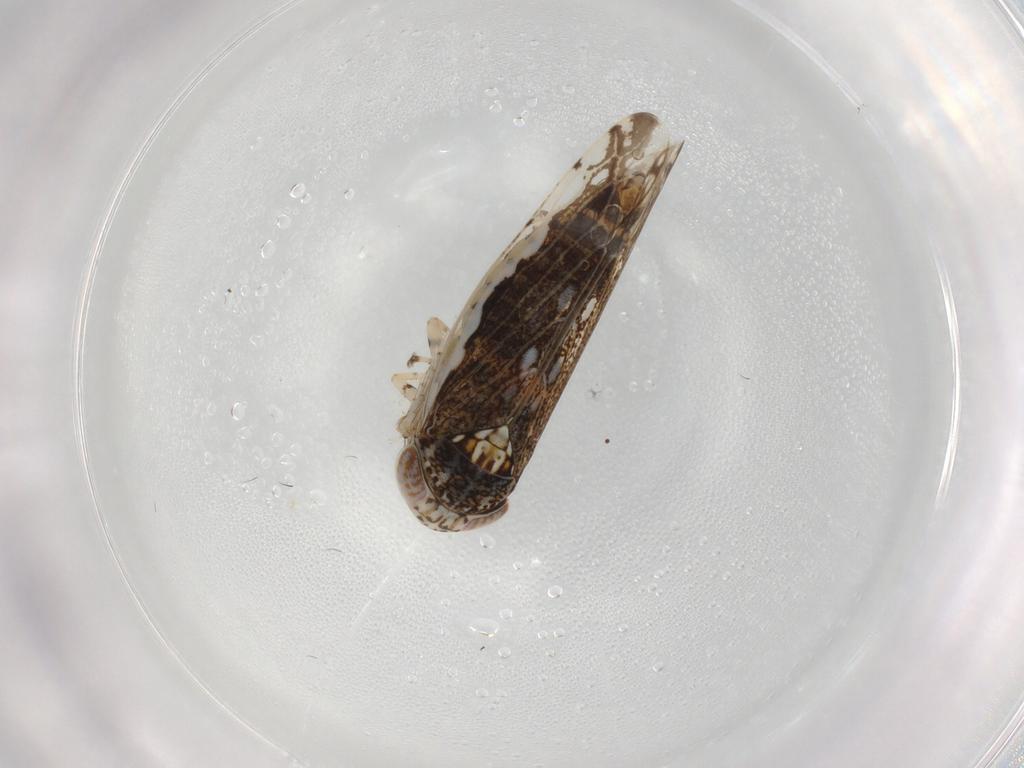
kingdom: Animalia
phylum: Arthropoda
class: Insecta
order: Hemiptera
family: Cicadellidae
